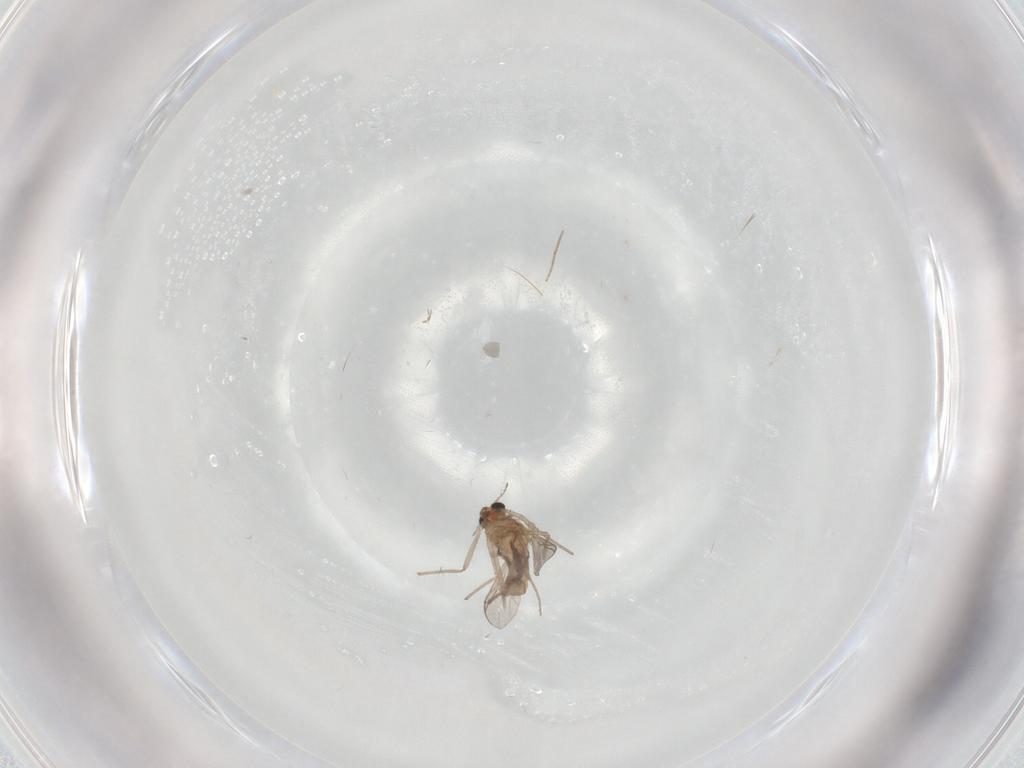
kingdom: Animalia
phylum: Arthropoda
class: Insecta
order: Diptera
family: Chironomidae
